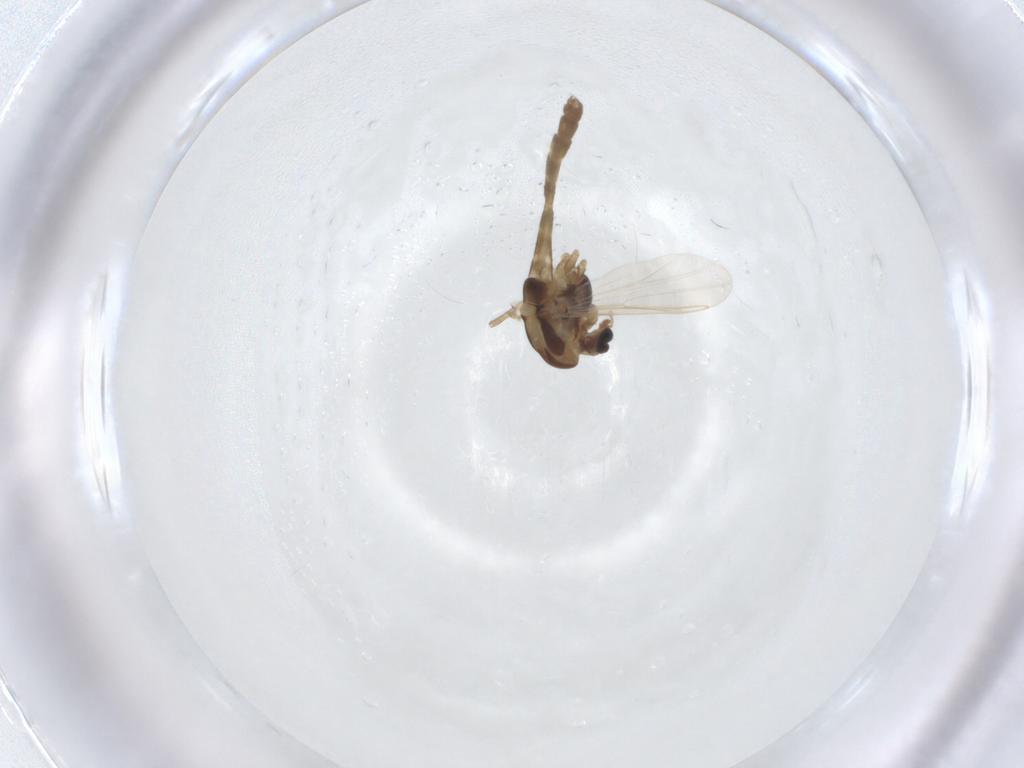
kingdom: Animalia
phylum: Arthropoda
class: Insecta
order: Diptera
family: Chironomidae
